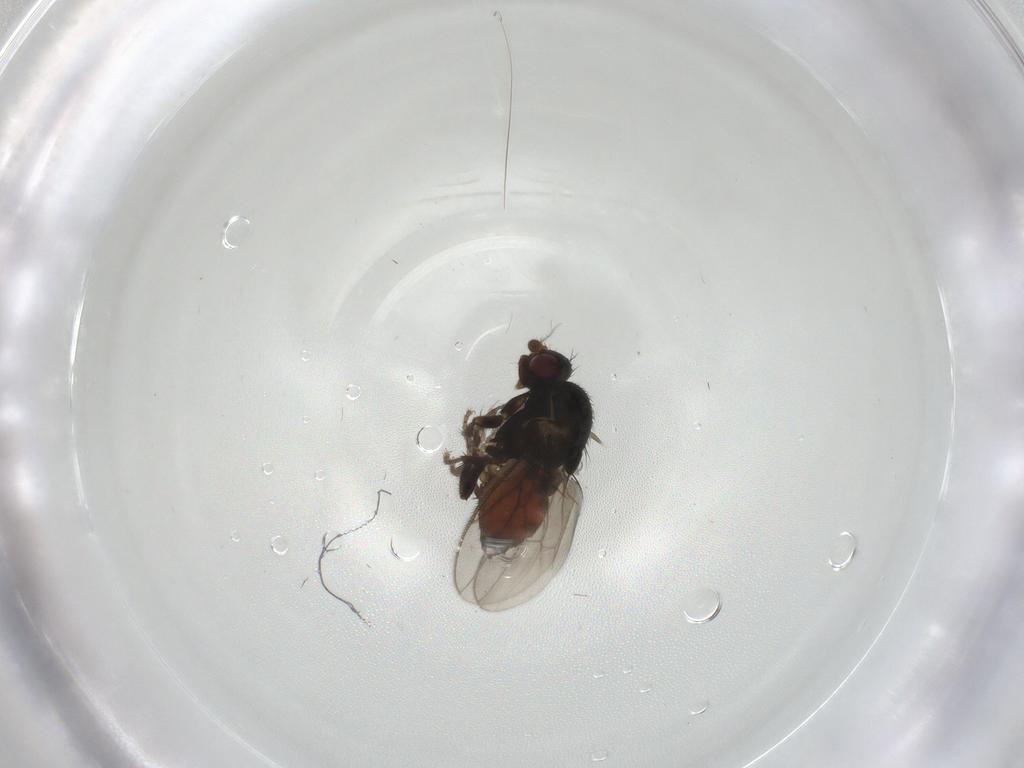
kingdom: Animalia
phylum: Arthropoda
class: Insecta
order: Diptera
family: Sphaeroceridae
